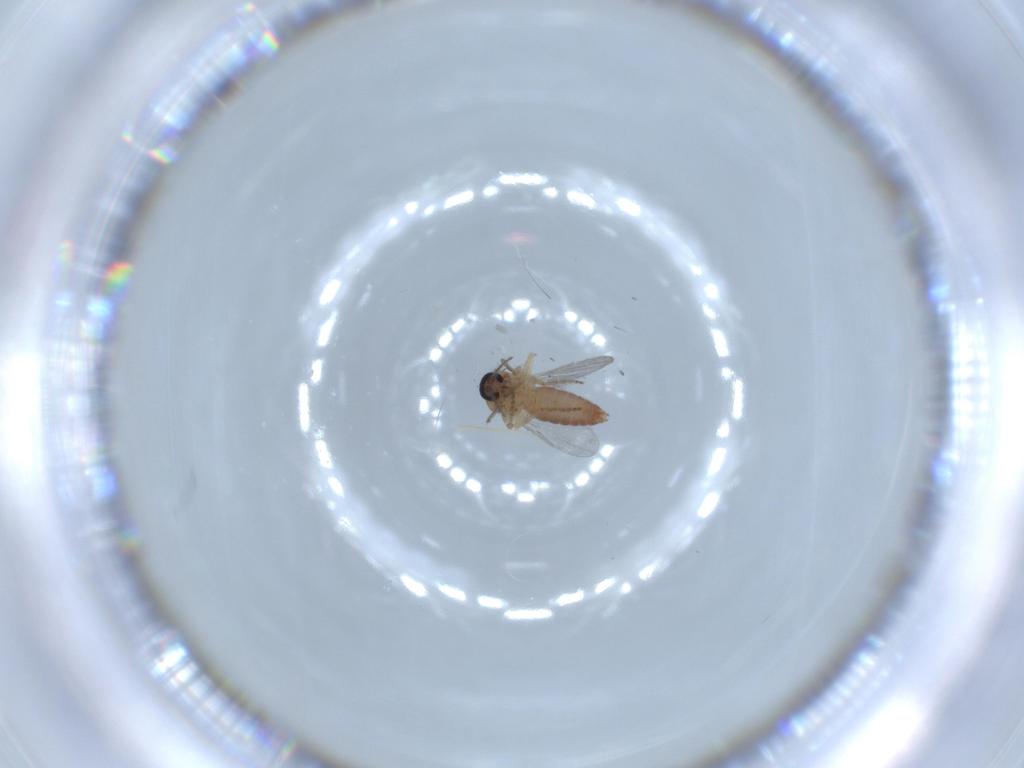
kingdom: Animalia
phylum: Arthropoda
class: Insecta
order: Diptera
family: Ceratopogonidae
